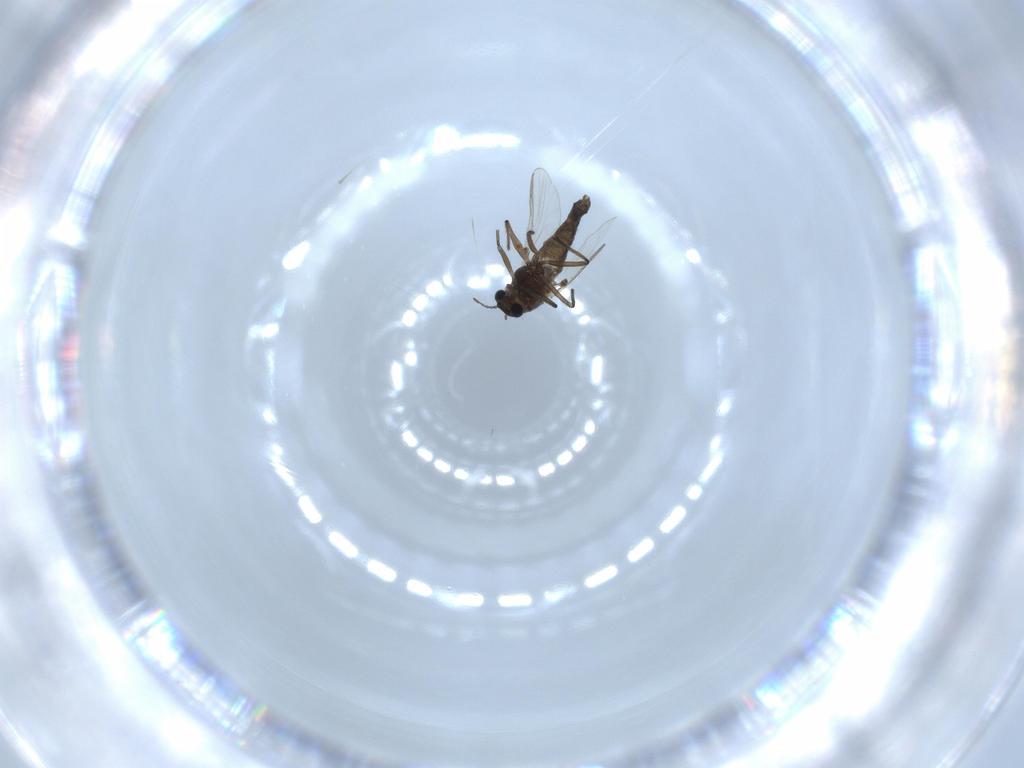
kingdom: Animalia
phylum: Arthropoda
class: Insecta
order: Diptera
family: Chironomidae
